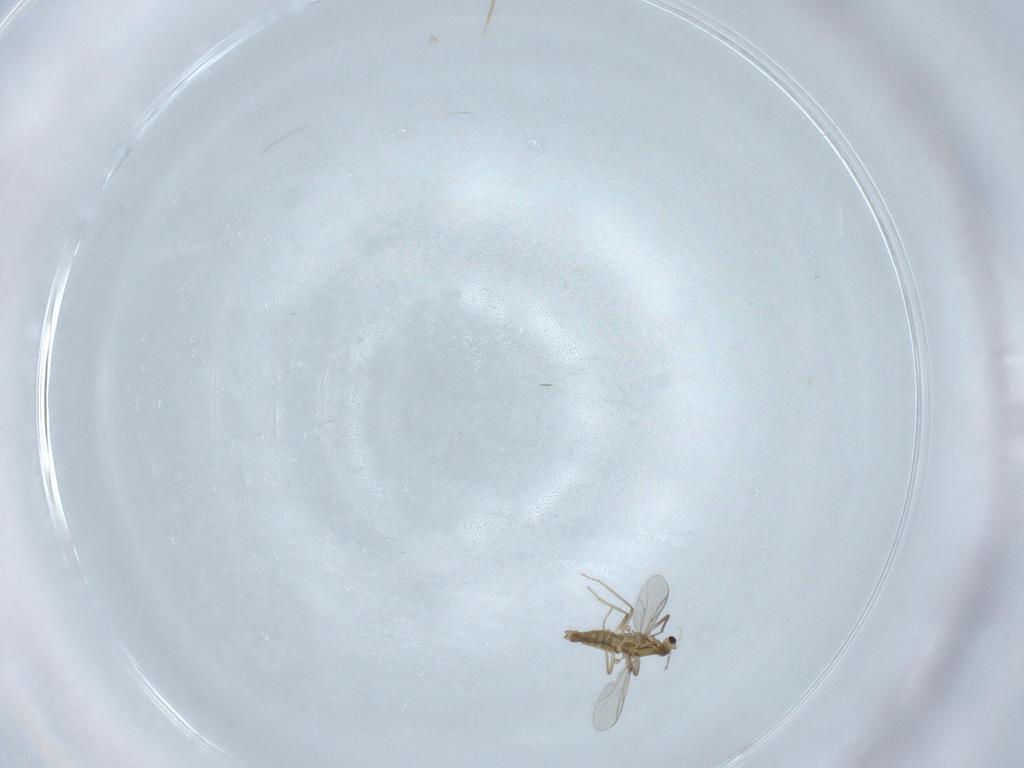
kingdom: Animalia
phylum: Arthropoda
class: Insecta
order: Diptera
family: Chironomidae
